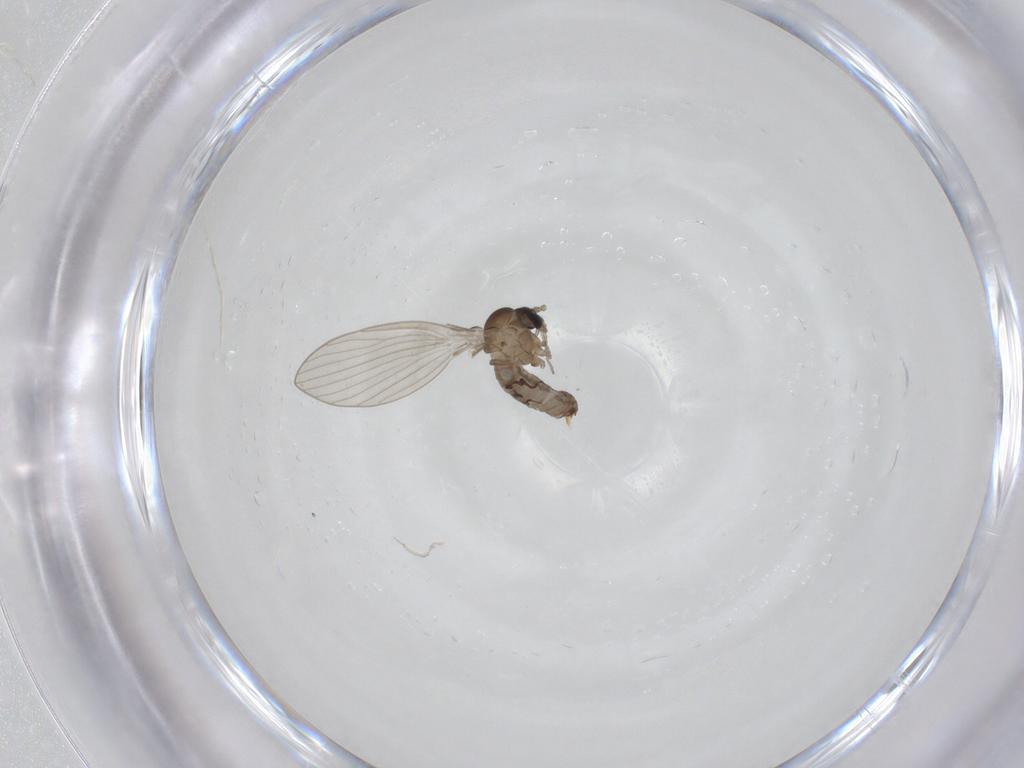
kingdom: Animalia
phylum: Arthropoda
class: Insecta
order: Diptera
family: Psychodidae
